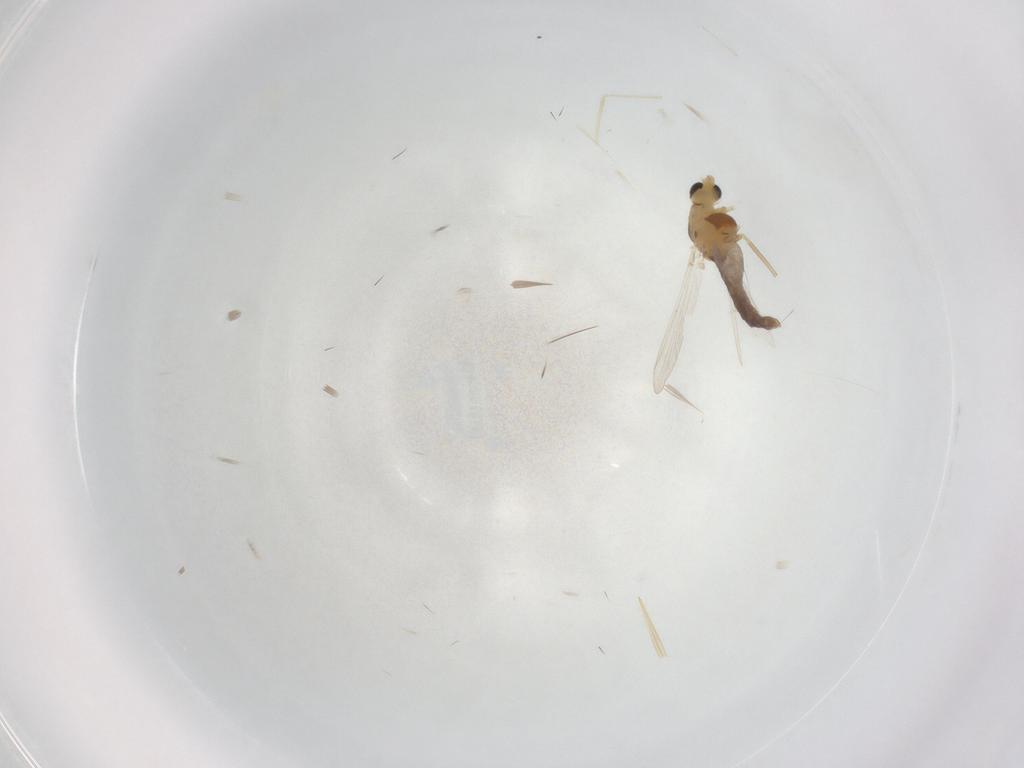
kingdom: Animalia
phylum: Arthropoda
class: Insecta
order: Diptera
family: Chironomidae
